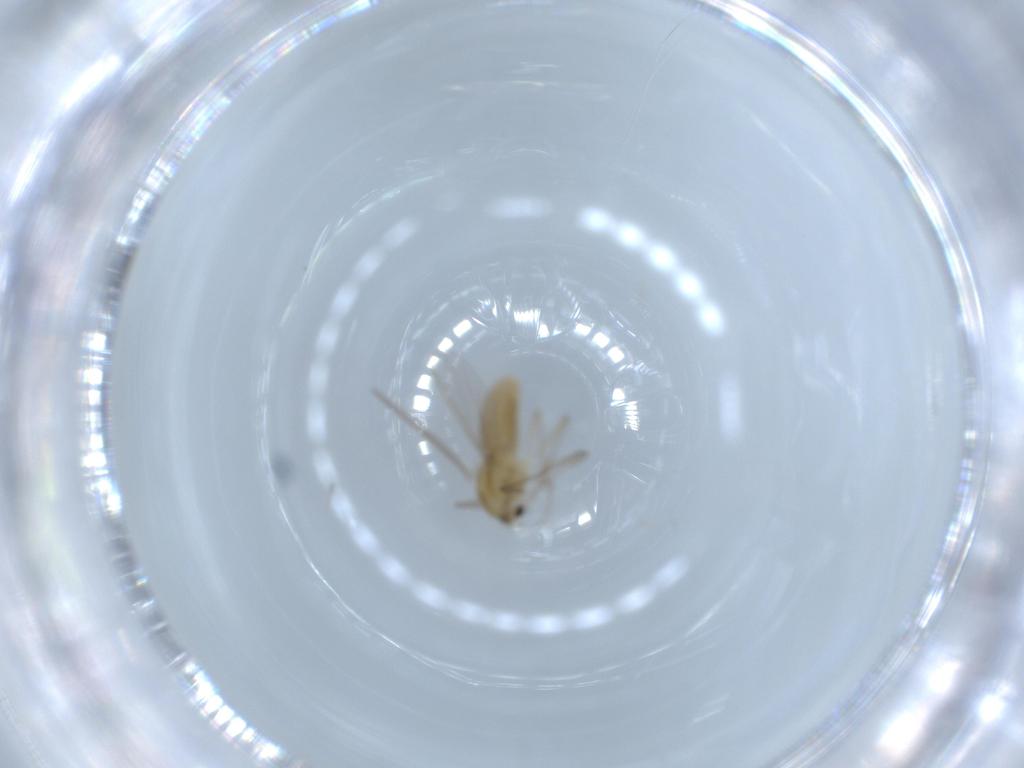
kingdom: Animalia
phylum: Arthropoda
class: Insecta
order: Diptera
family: Chironomidae
